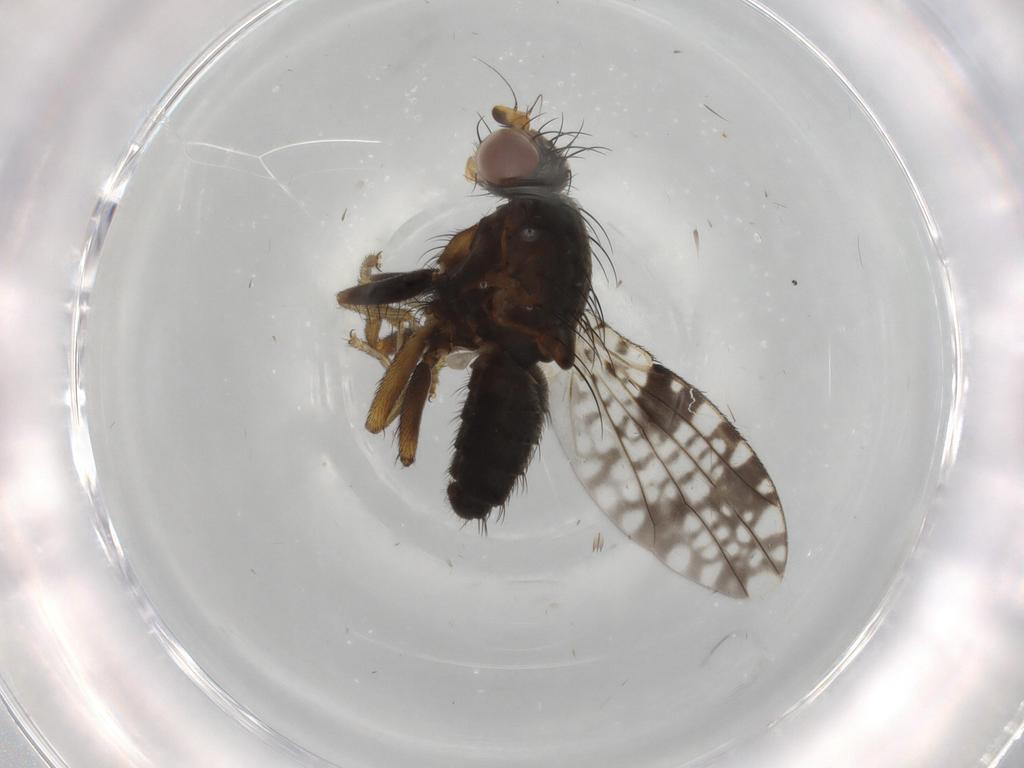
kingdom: Animalia
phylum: Arthropoda
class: Insecta
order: Diptera
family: Tephritidae
